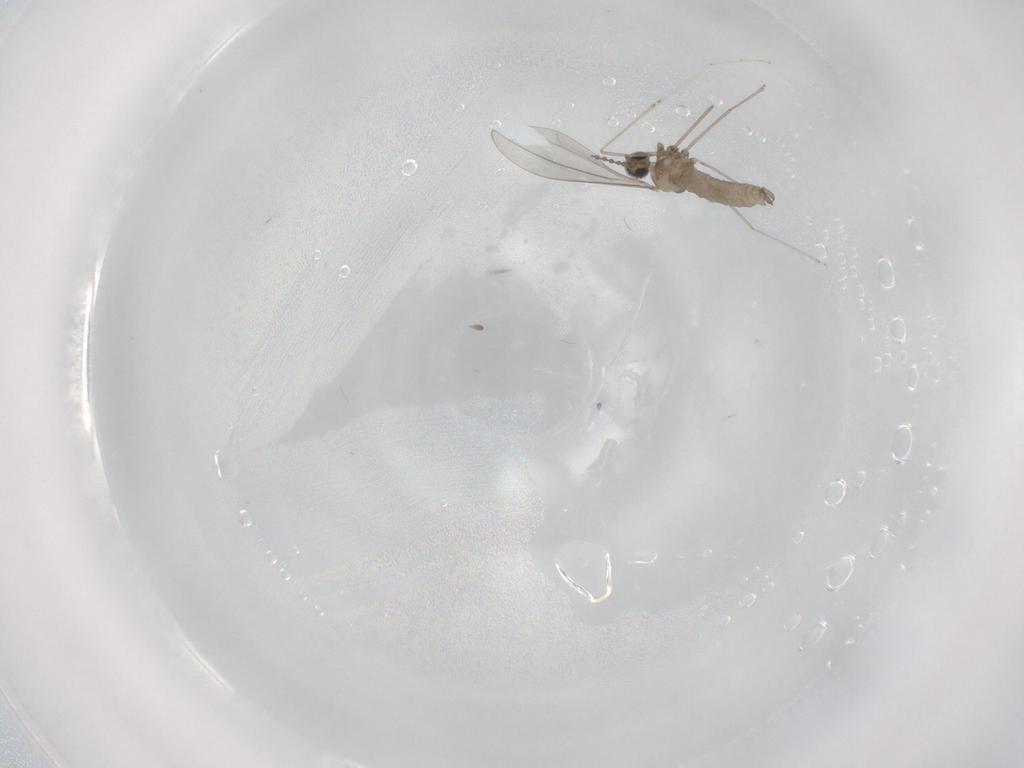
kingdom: Animalia
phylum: Arthropoda
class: Insecta
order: Diptera
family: Cecidomyiidae
